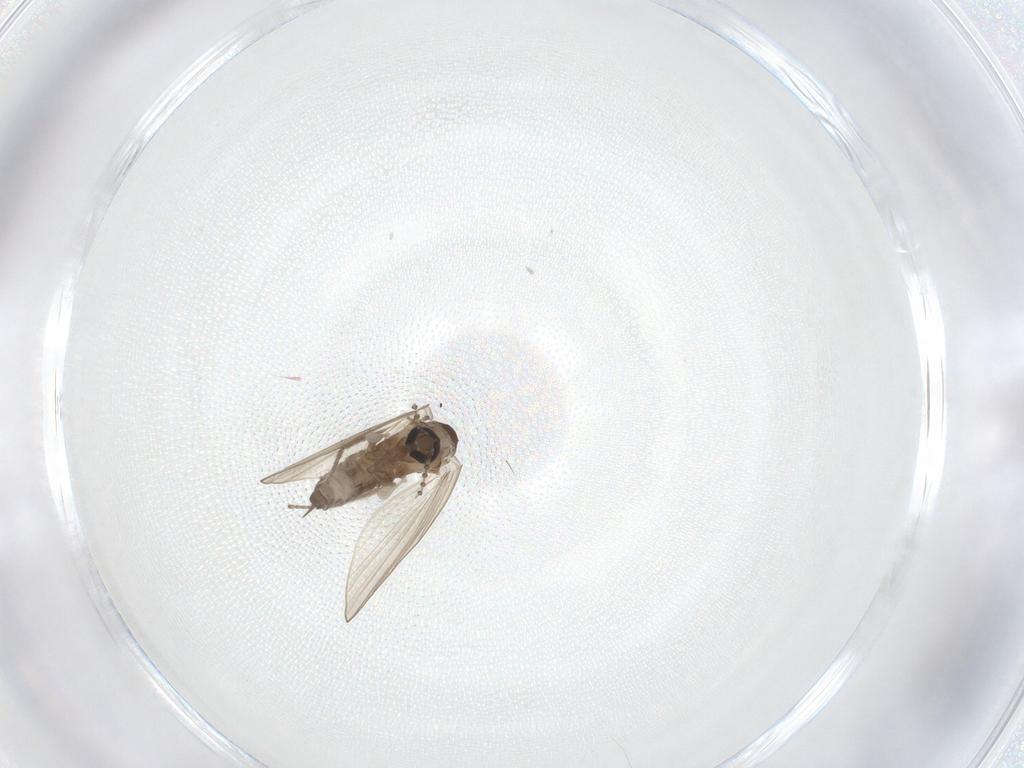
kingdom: Animalia
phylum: Arthropoda
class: Insecta
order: Diptera
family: Psychodidae
